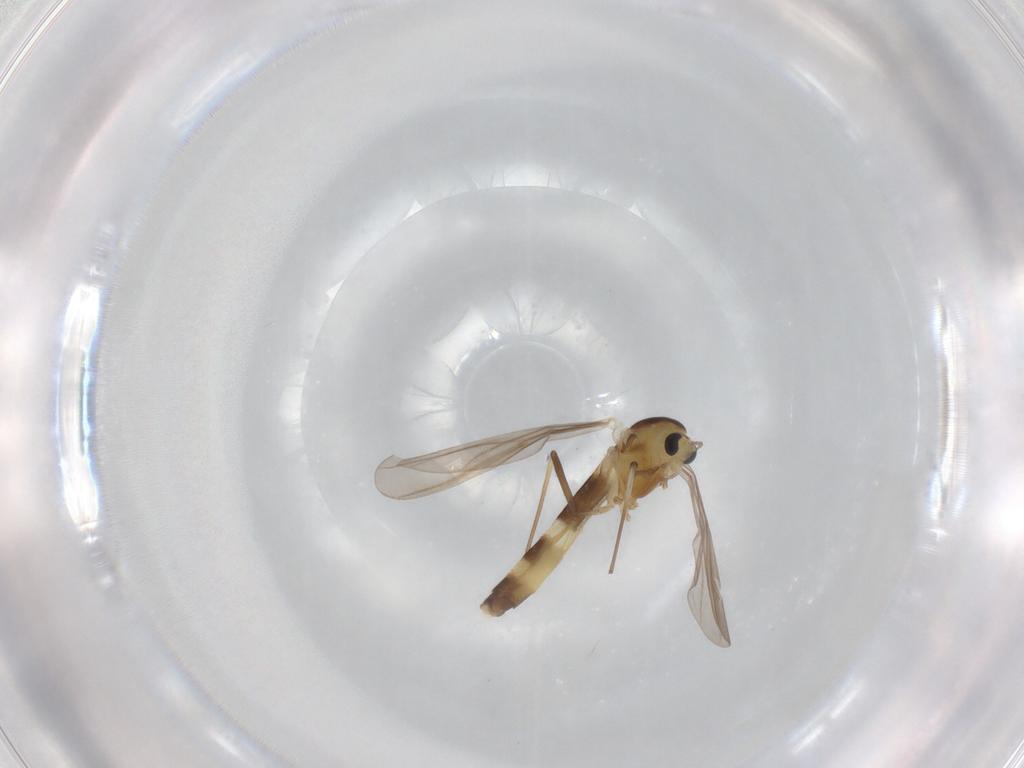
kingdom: Animalia
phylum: Arthropoda
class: Insecta
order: Diptera
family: Chironomidae
